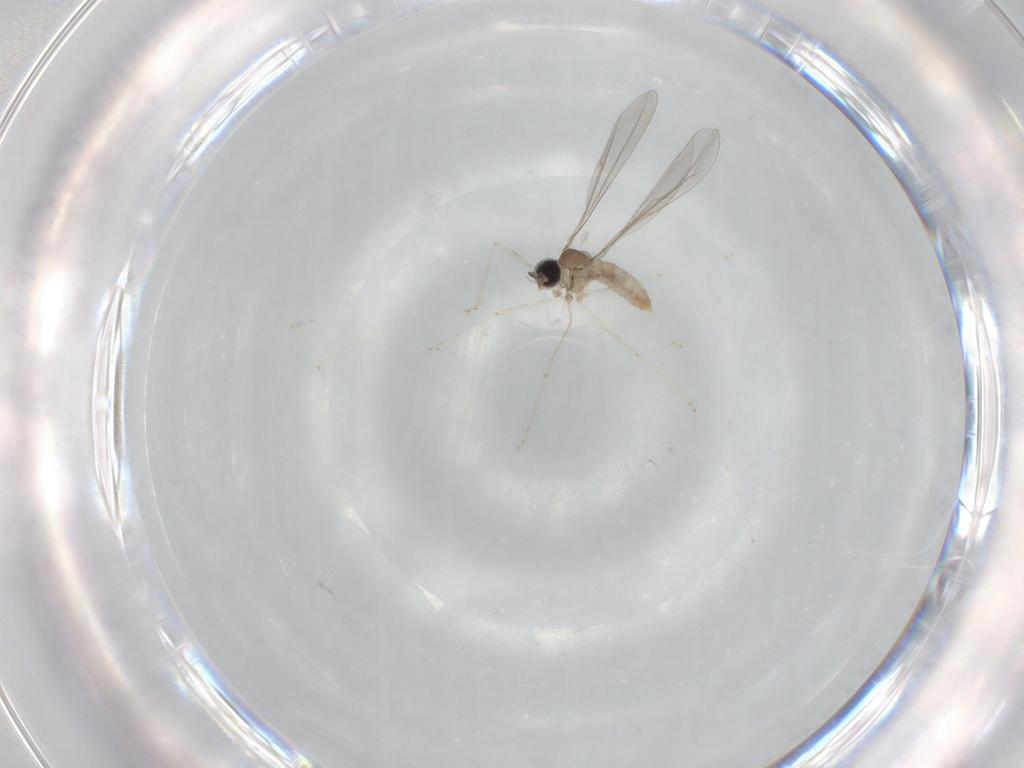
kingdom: Animalia
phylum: Arthropoda
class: Insecta
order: Diptera
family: Cecidomyiidae
